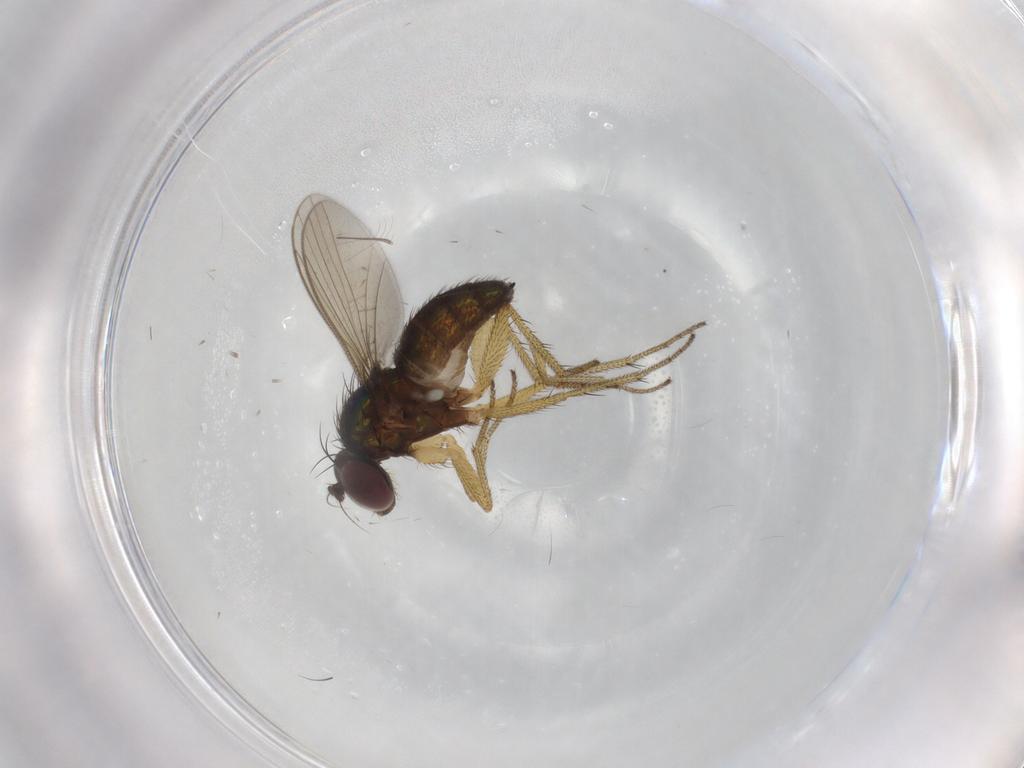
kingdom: Animalia
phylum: Arthropoda
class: Insecta
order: Diptera
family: Chironomidae
